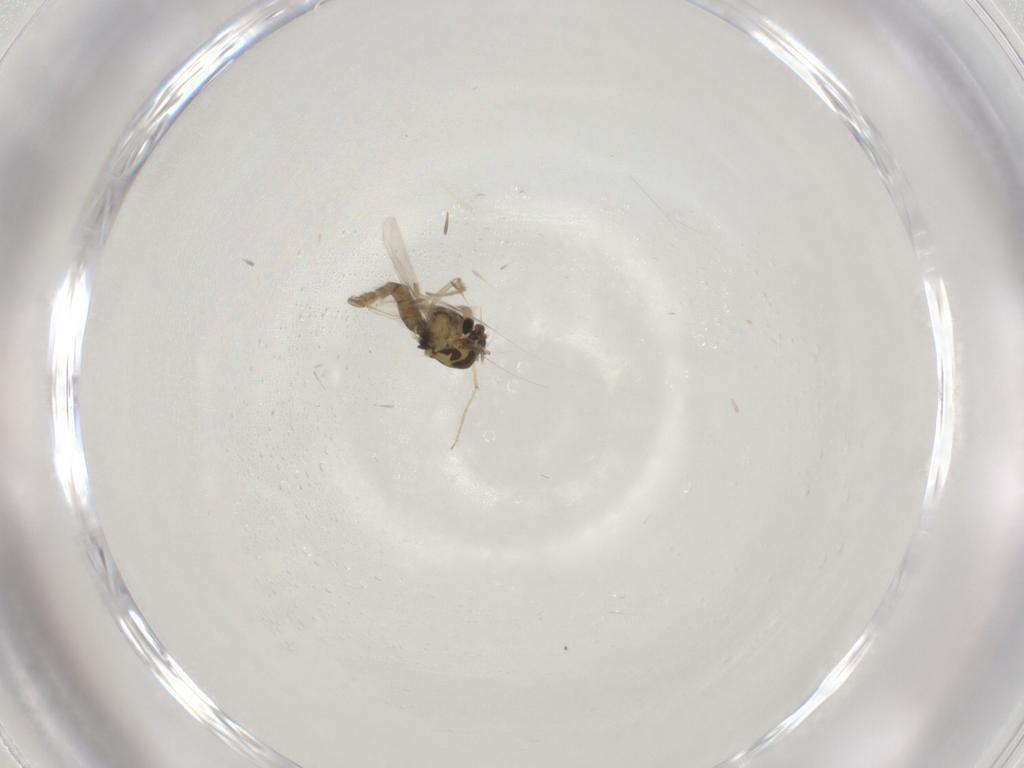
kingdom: Animalia
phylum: Arthropoda
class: Insecta
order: Diptera
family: Chironomidae
